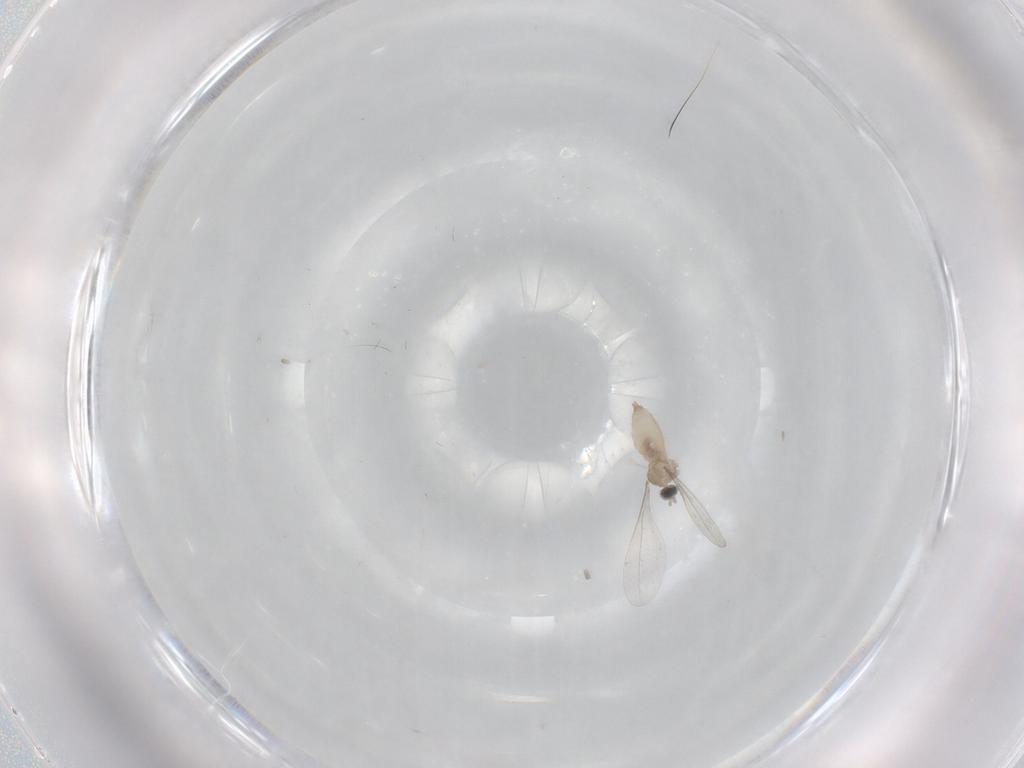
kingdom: Animalia
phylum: Arthropoda
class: Insecta
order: Diptera
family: Cecidomyiidae
